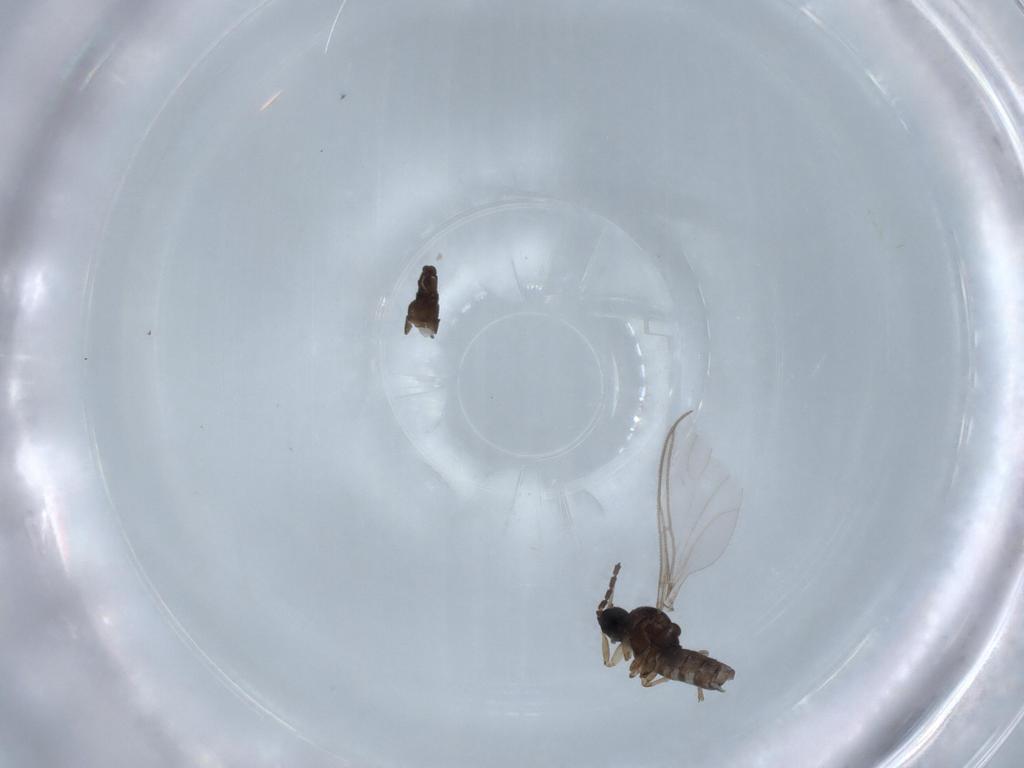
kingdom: Animalia
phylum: Arthropoda
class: Insecta
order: Diptera
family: Sciaridae
